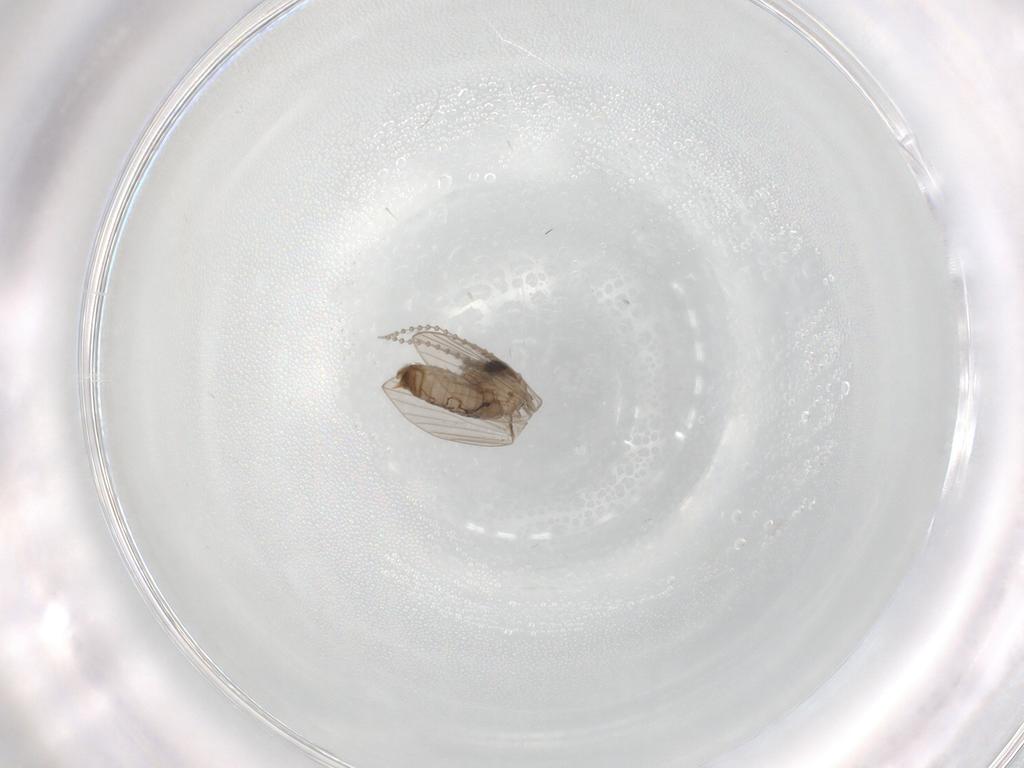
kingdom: Animalia
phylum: Arthropoda
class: Insecta
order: Diptera
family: Psychodidae
